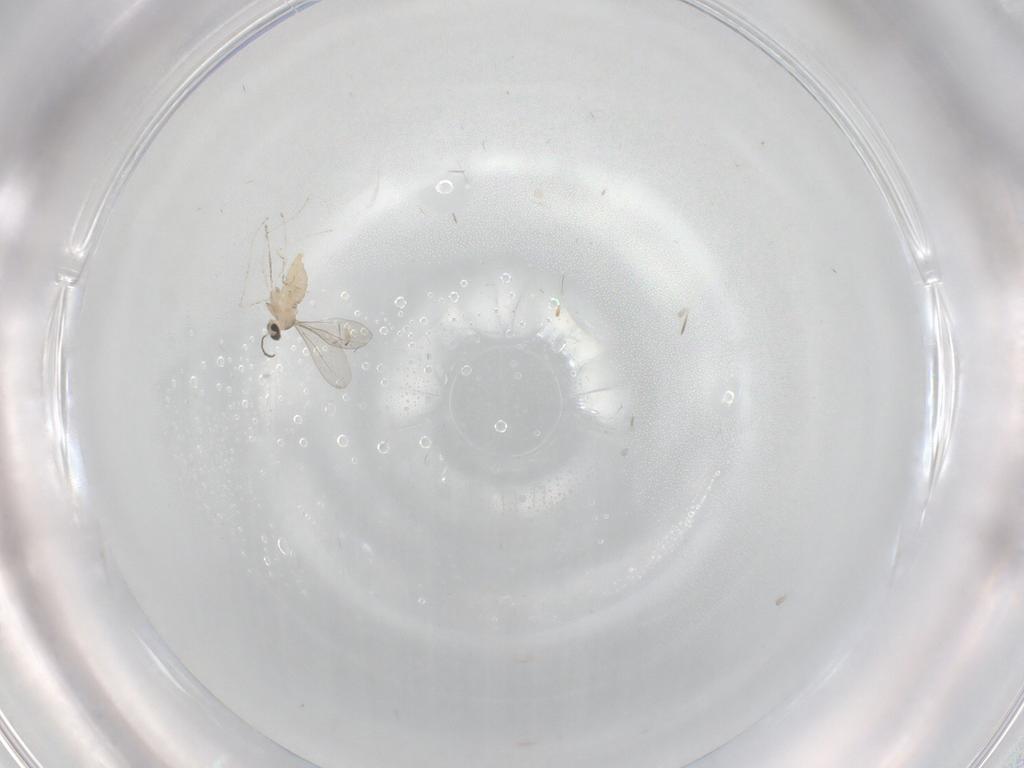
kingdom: Animalia
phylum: Arthropoda
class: Insecta
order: Diptera
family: Cecidomyiidae
